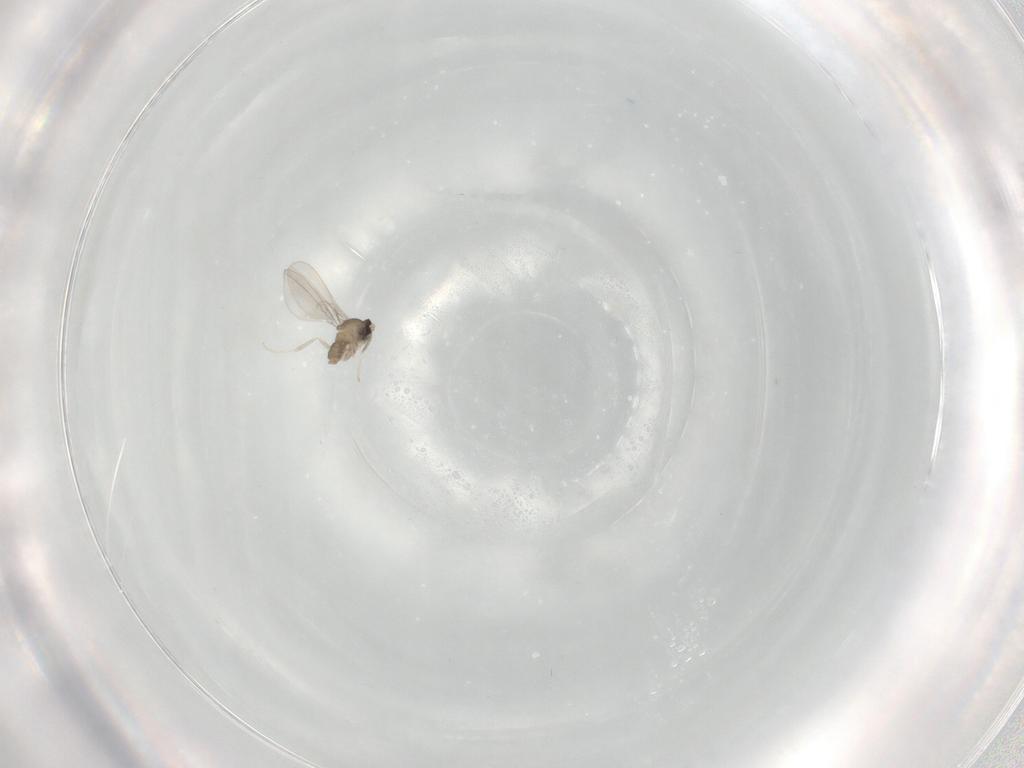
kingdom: Animalia
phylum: Arthropoda
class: Insecta
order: Diptera
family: Cecidomyiidae
